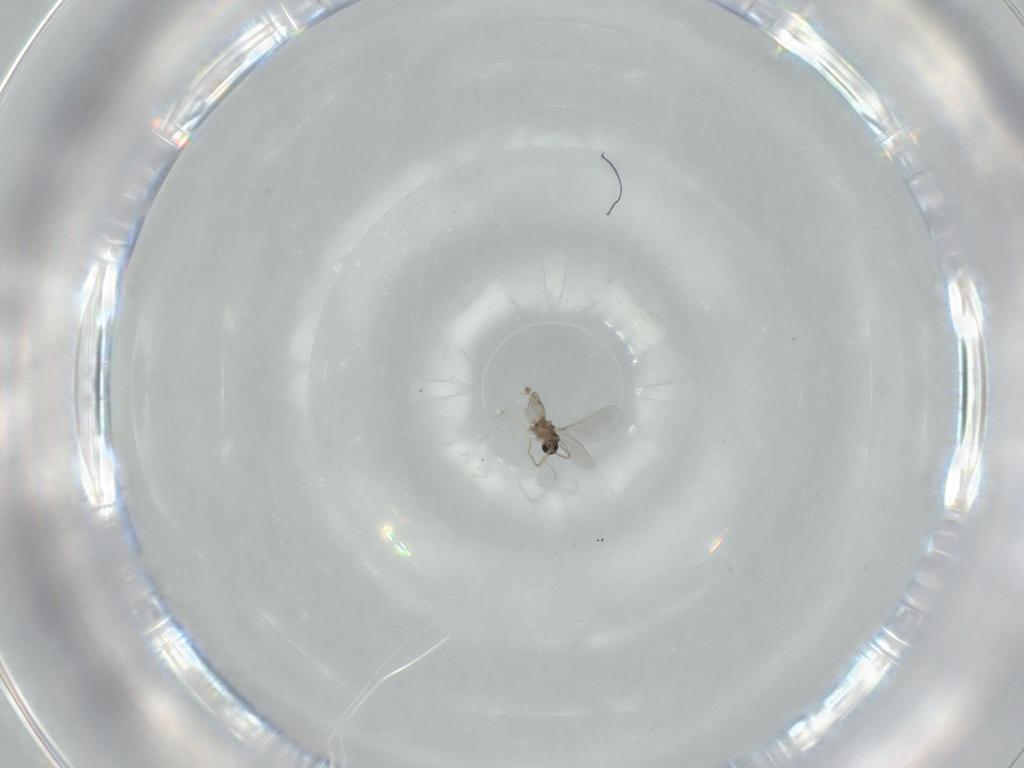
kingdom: Animalia
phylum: Arthropoda
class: Insecta
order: Diptera
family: Cecidomyiidae
